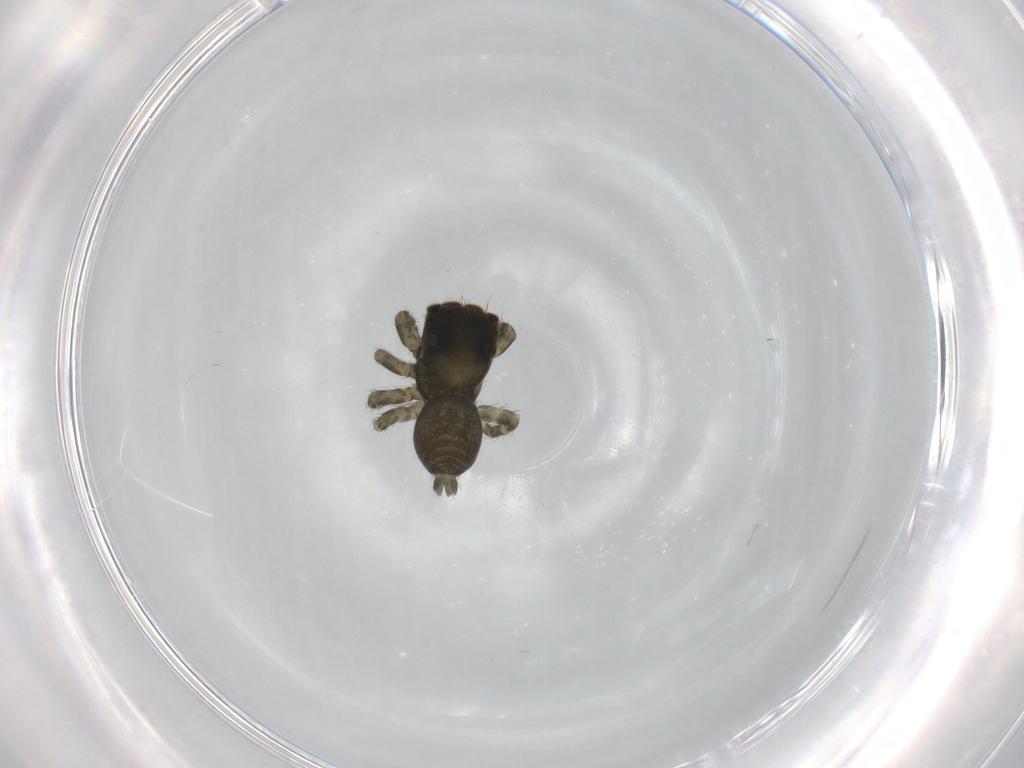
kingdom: Animalia
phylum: Arthropoda
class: Arachnida
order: Araneae
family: Salticidae
